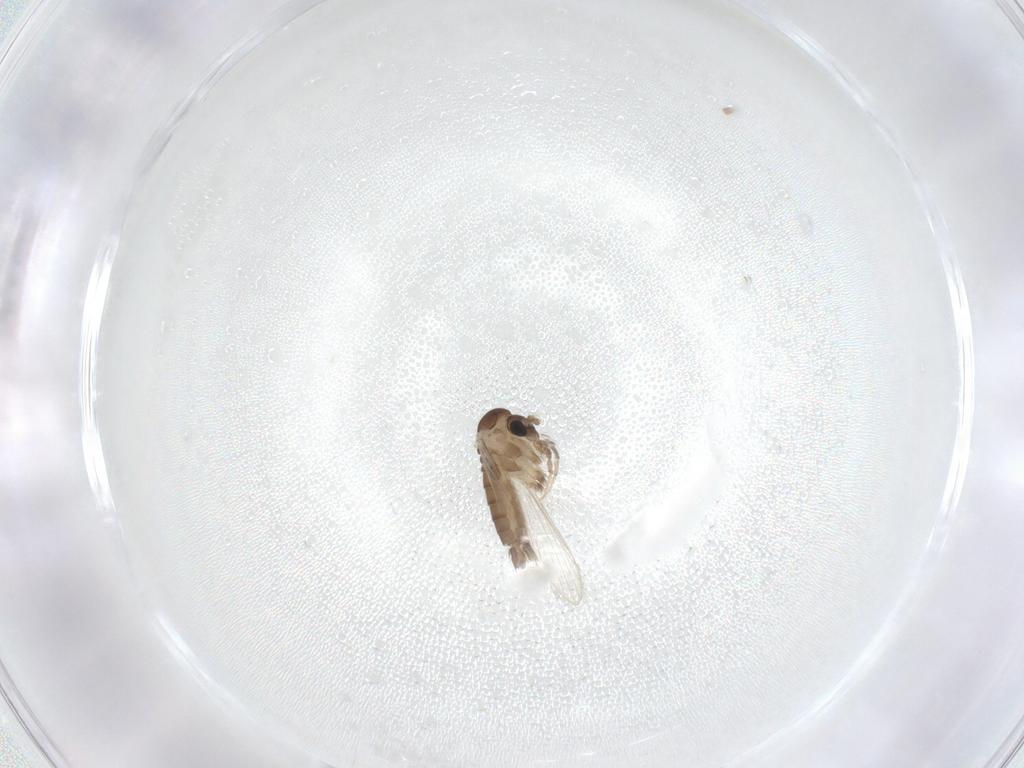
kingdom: Animalia
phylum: Arthropoda
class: Insecta
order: Diptera
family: Psychodidae
